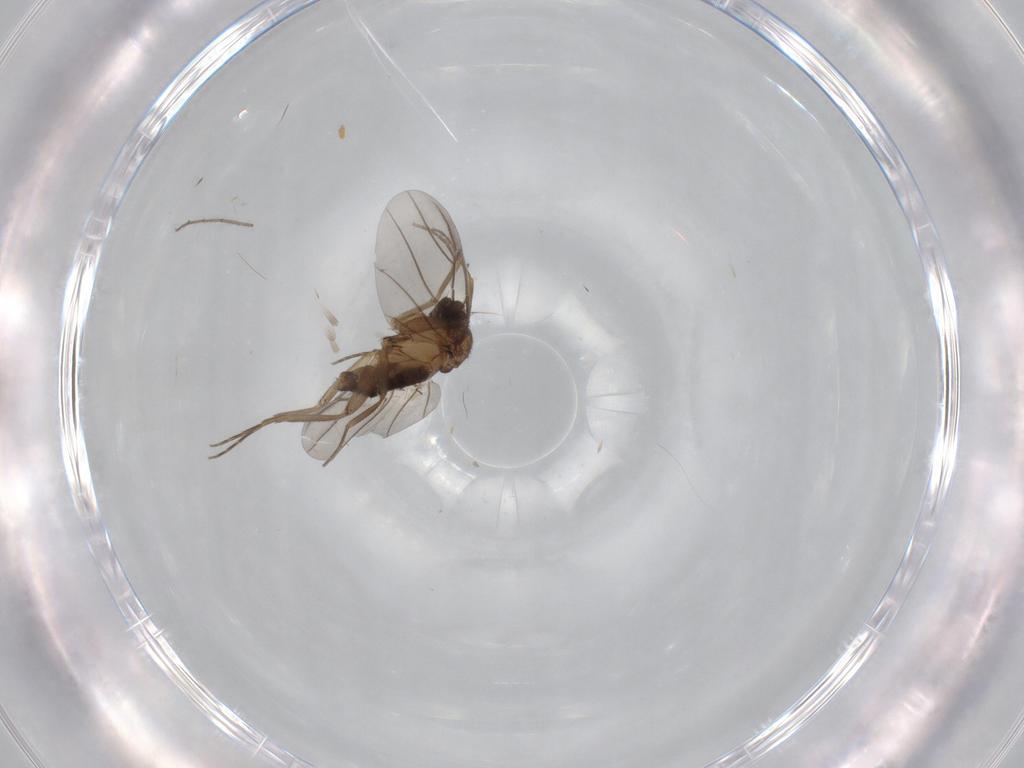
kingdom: Animalia
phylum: Arthropoda
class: Insecta
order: Diptera
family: Phoridae
